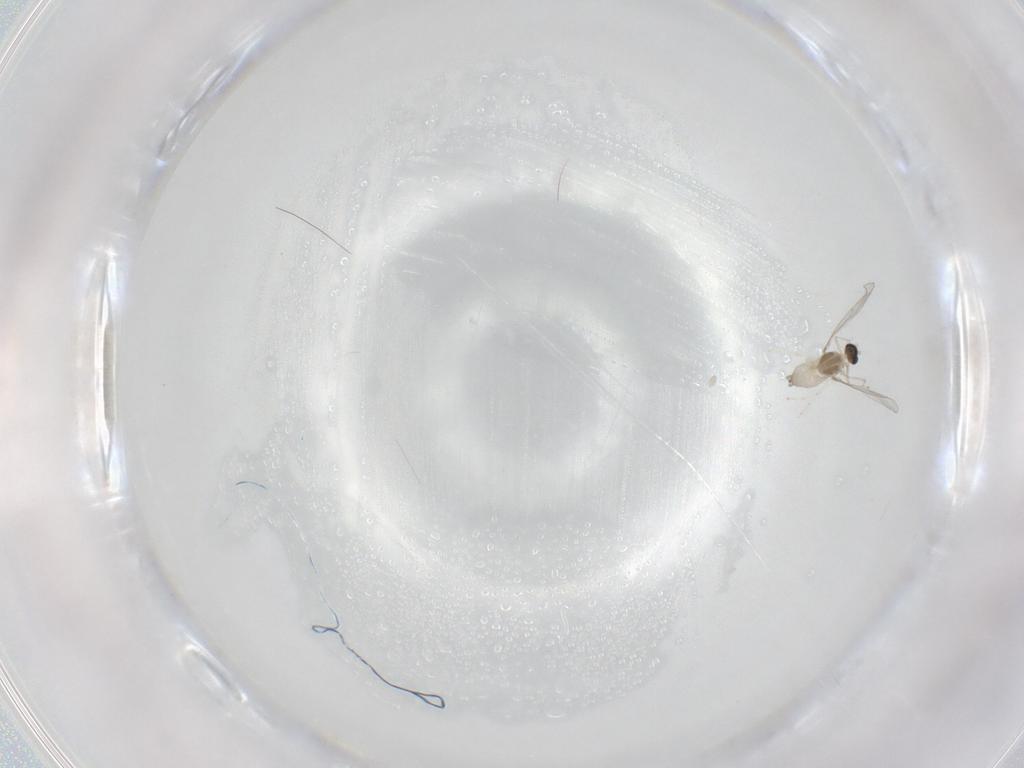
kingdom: Animalia
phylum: Arthropoda
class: Insecta
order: Diptera
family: Cecidomyiidae
